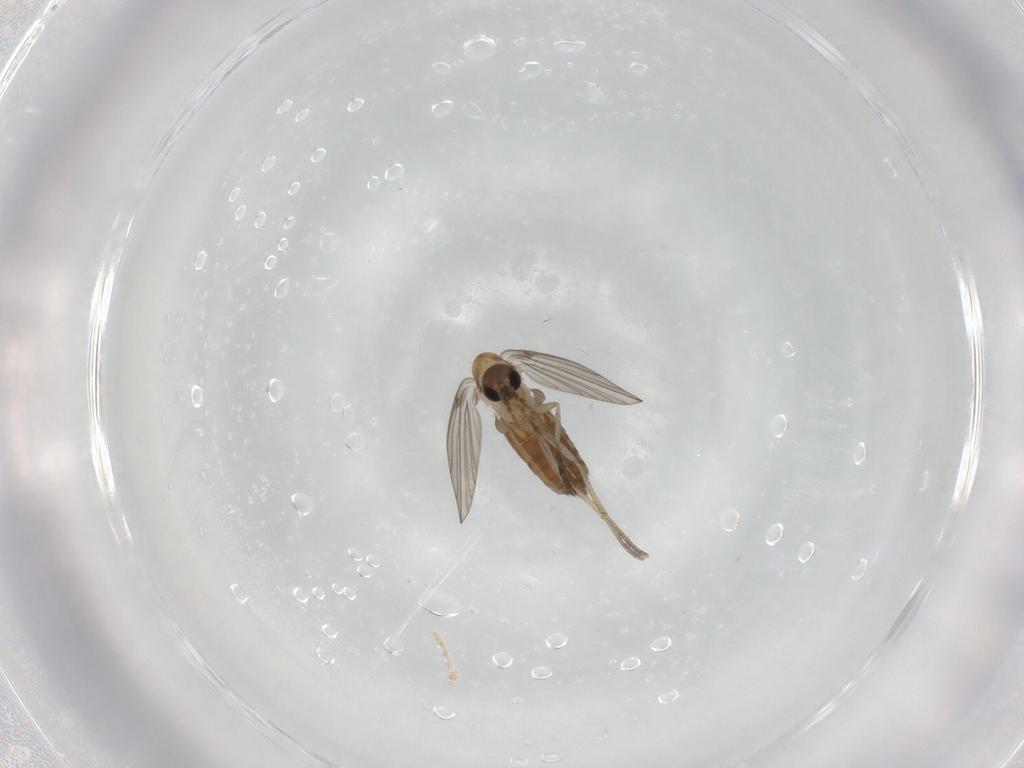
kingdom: Animalia
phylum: Arthropoda
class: Insecta
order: Diptera
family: Psychodidae
